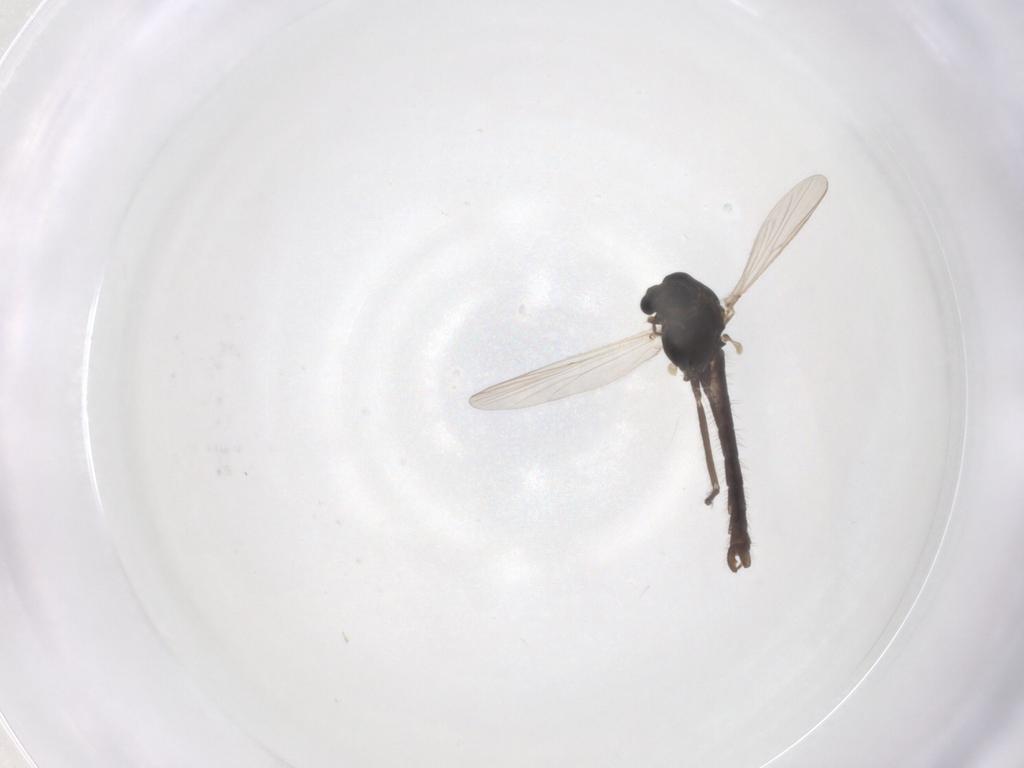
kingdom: Animalia
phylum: Arthropoda
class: Insecta
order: Diptera
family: Chironomidae
